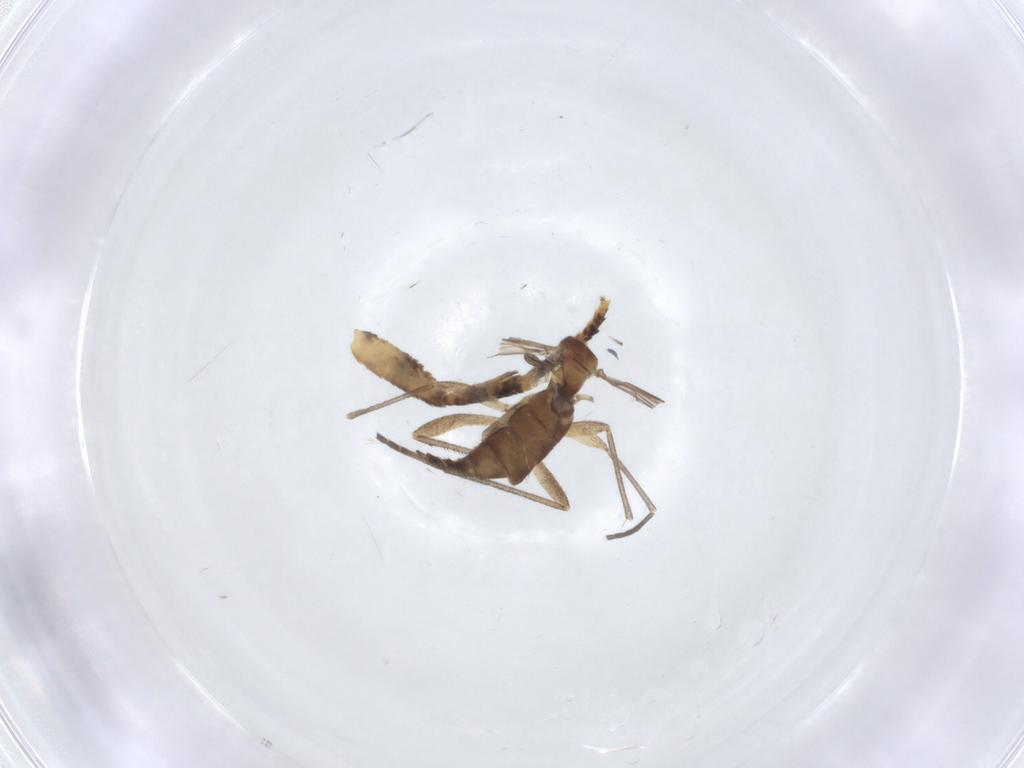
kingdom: Animalia
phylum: Arthropoda
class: Insecta
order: Diptera
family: Sciaridae
